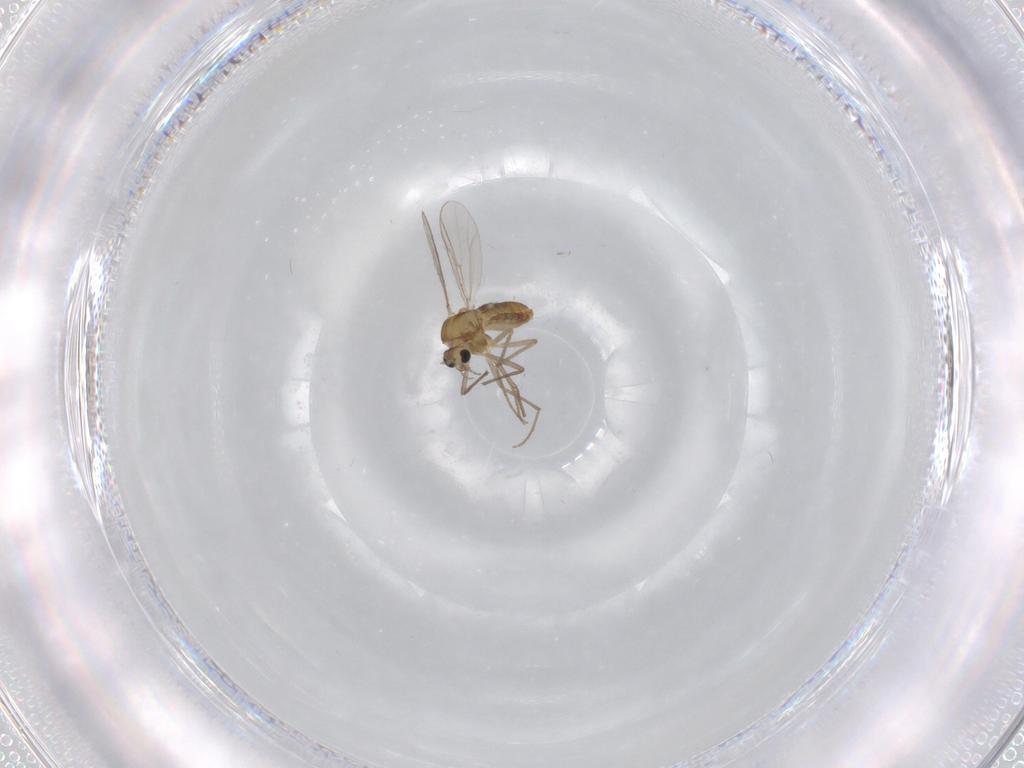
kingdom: Animalia
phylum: Arthropoda
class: Insecta
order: Diptera
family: Chironomidae
